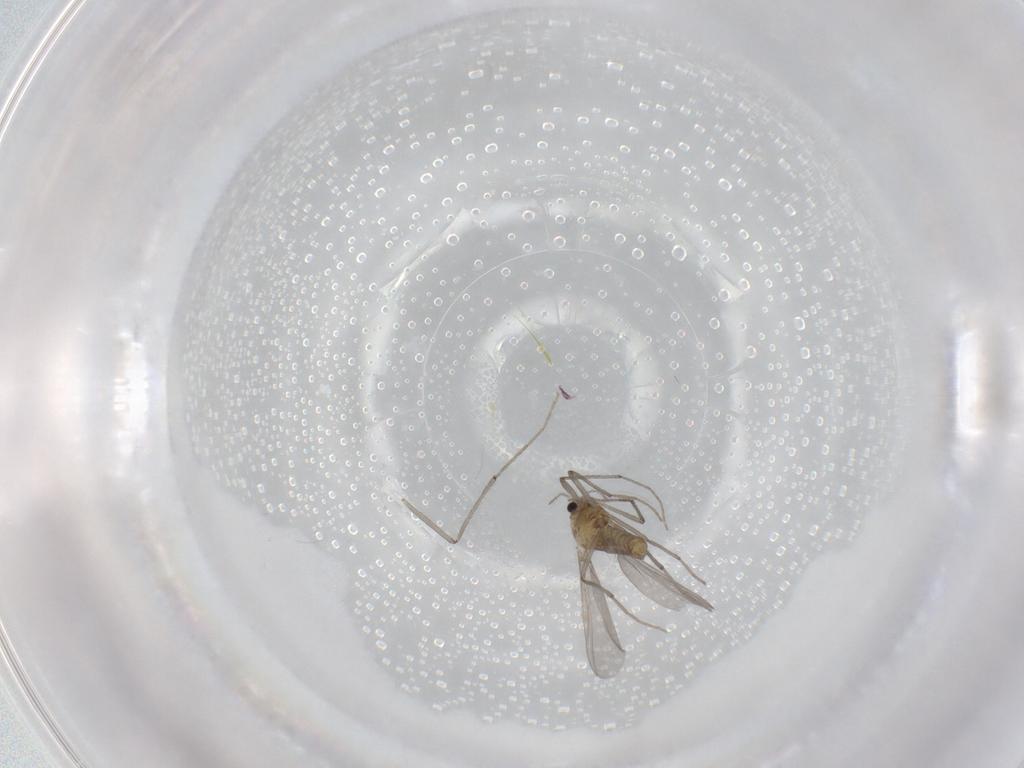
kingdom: Animalia
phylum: Arthropoda
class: Insecta
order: Diptera
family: Chironomidae
